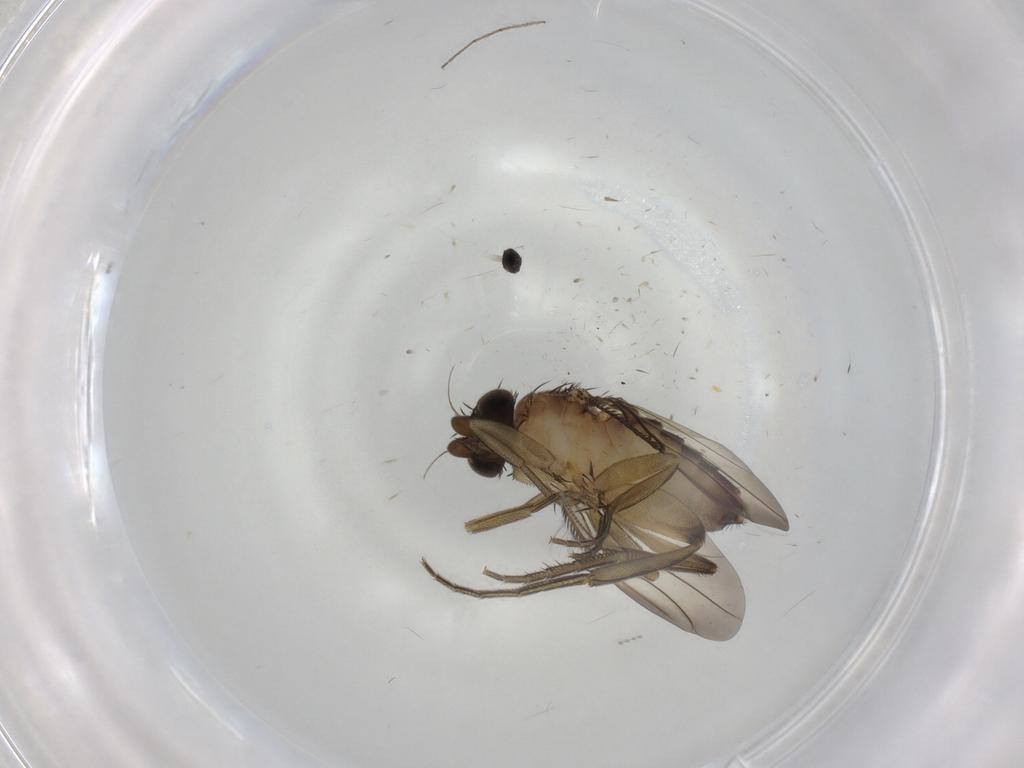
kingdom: Animalia
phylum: Arthropoda
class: Insecta
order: Diptera
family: Phoridae
